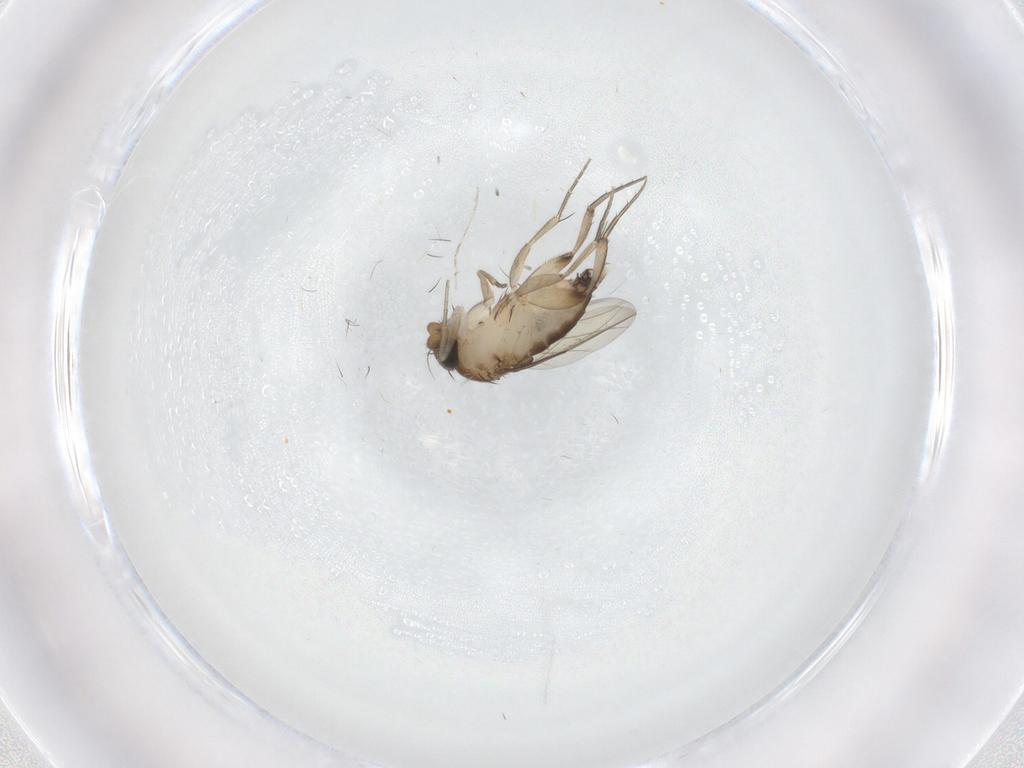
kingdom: Animalia
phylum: Arthropoda
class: Insecta
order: Diptera
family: Phoridae
